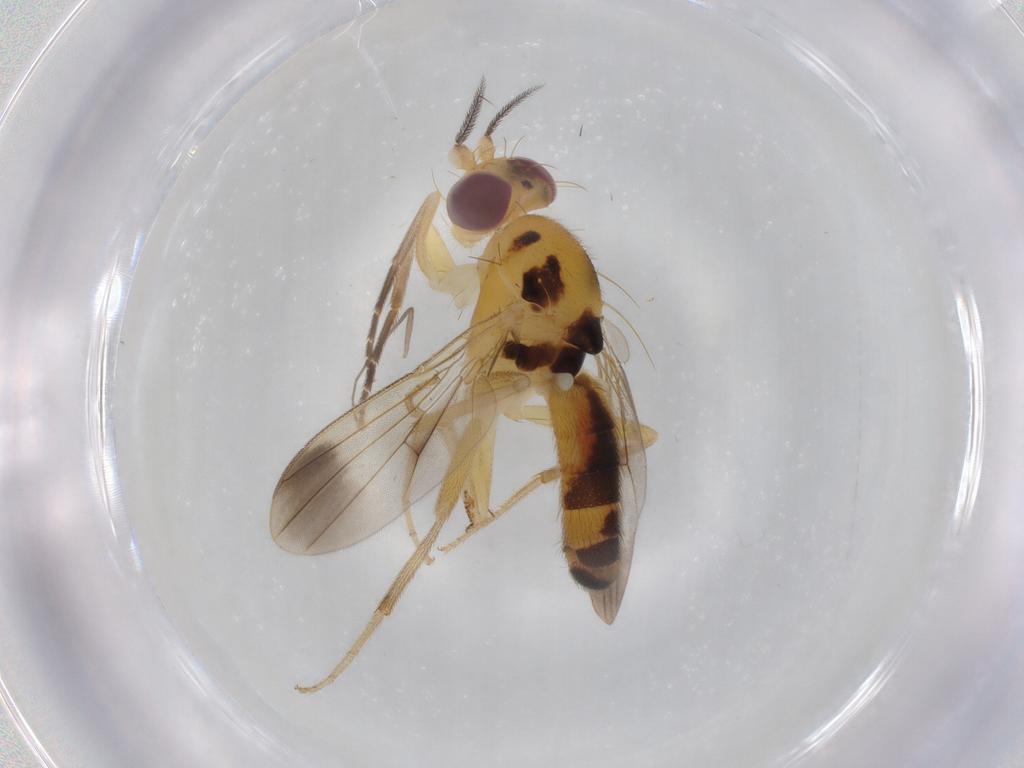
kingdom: Animalia
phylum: Arthropoda
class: Insecta
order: Diptera
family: Clusiidae
